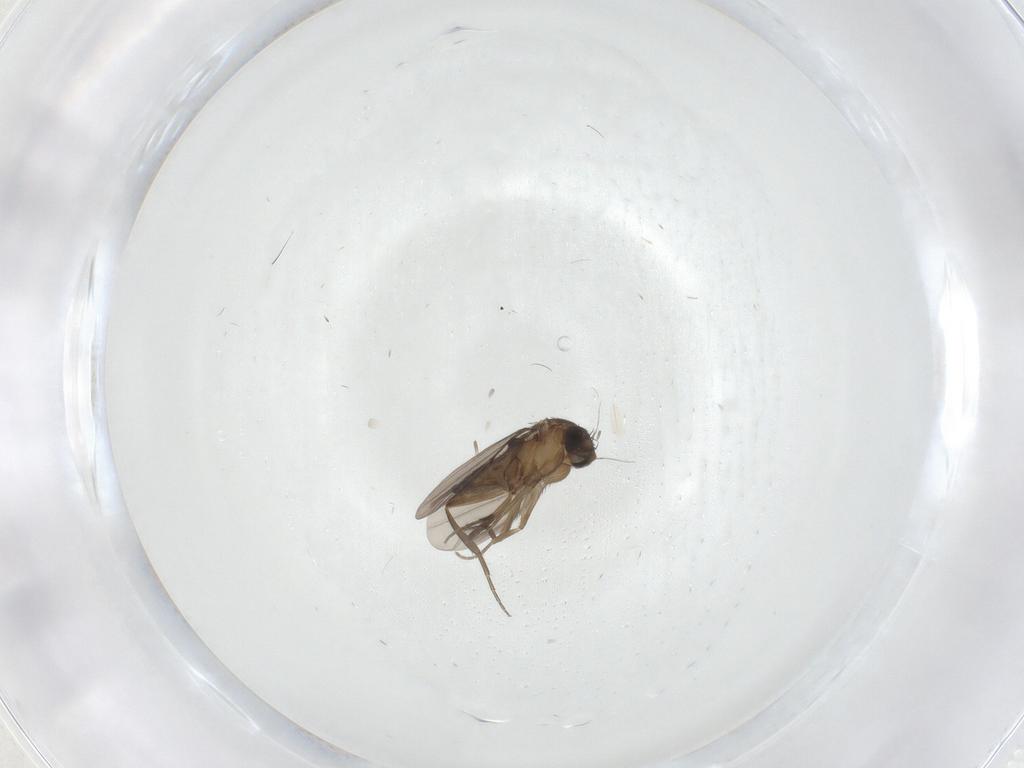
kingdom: Animalia
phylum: Arthropoda
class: Insecta
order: Diptera
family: Phoridae
